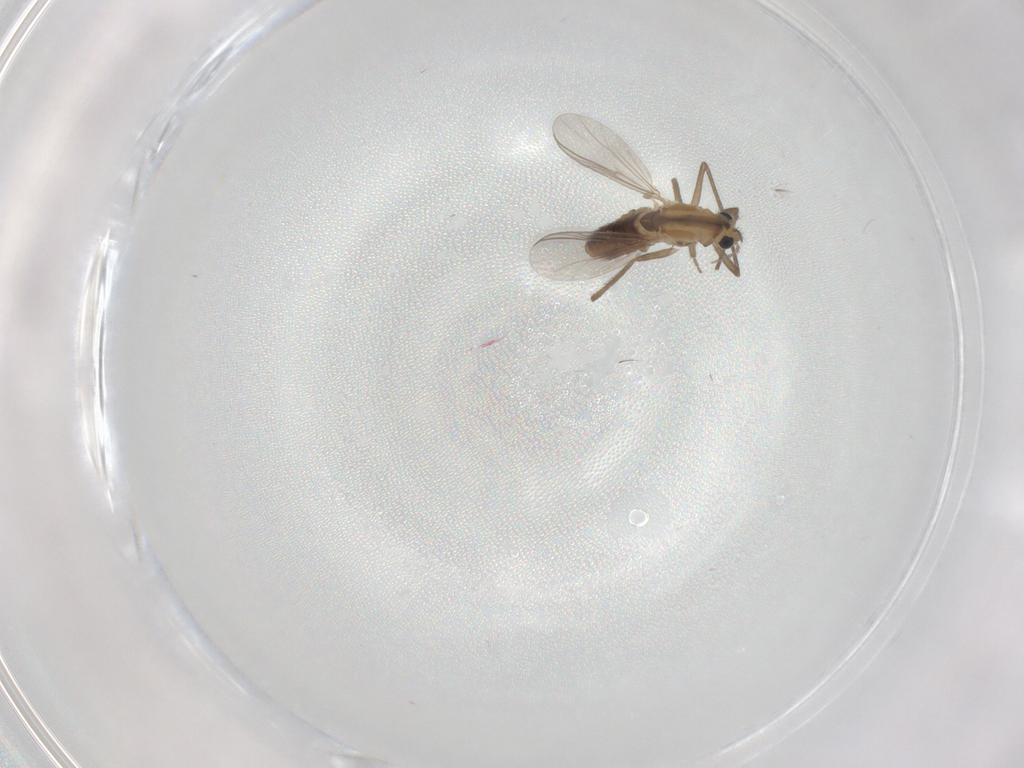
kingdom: Animalia
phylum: Arthropoda
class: Insecta
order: Diptera
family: Chironomidae
